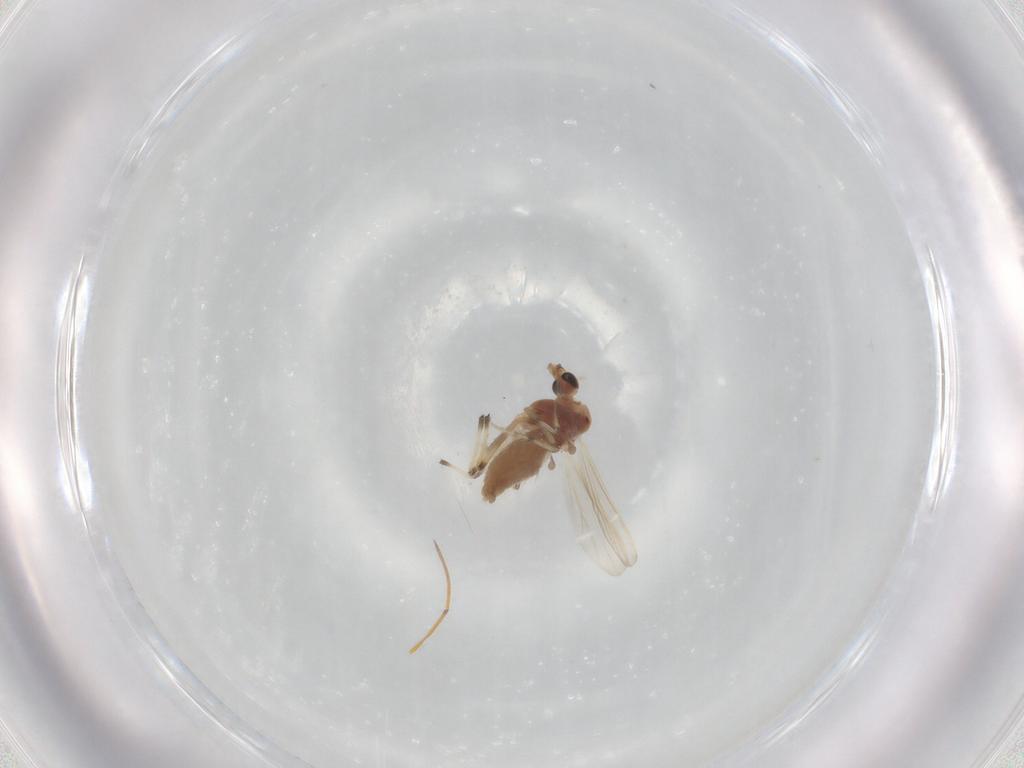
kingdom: Animalia
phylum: Arthropoda
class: Insecta
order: Diptera
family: Chironomidae
